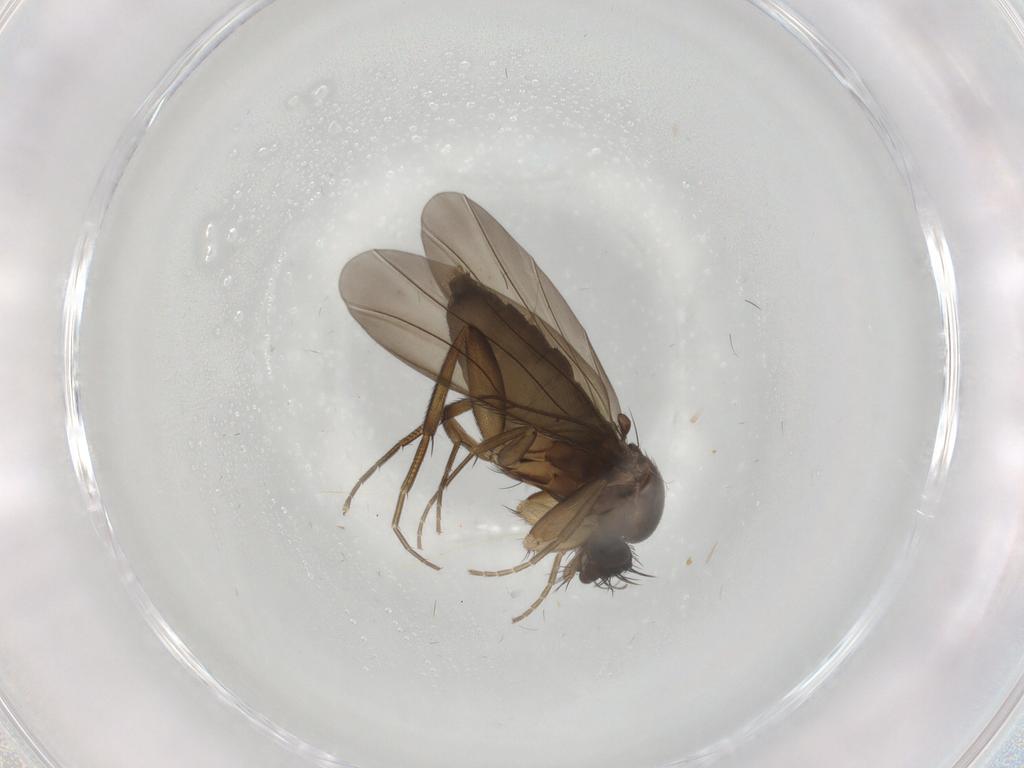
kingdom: Animalia
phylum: Arthropoda
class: Insecta
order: Diptera
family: Phoridae
